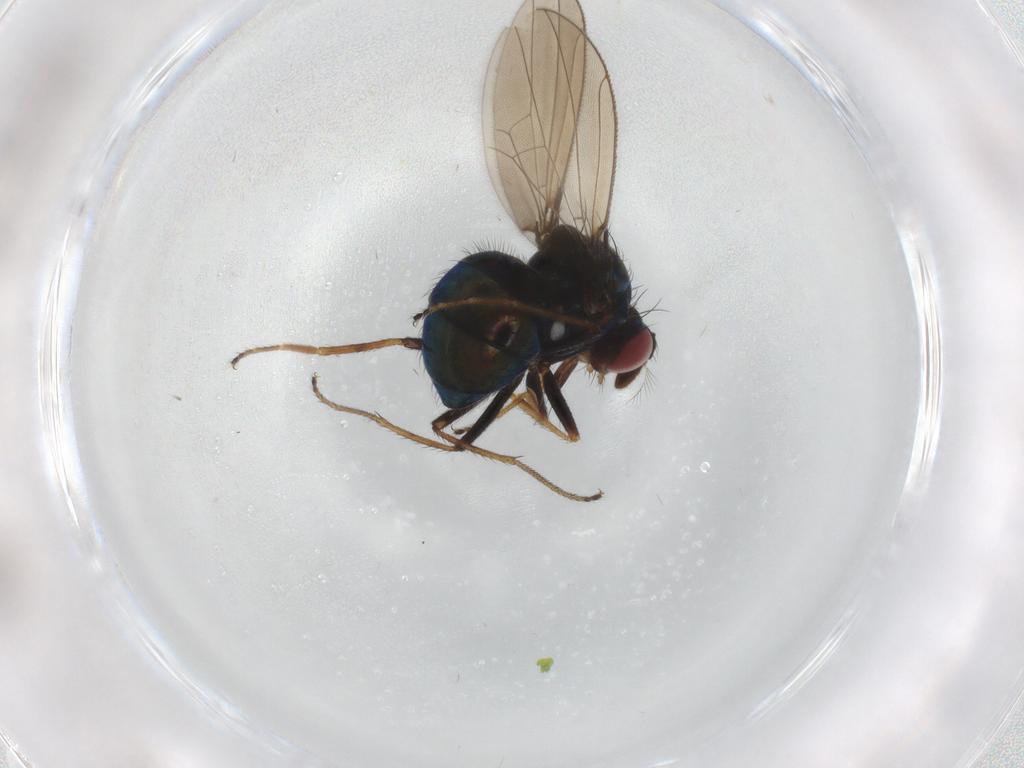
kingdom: Animalia
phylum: Arthropoda
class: Insecta
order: Diptera
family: Ephydridae
